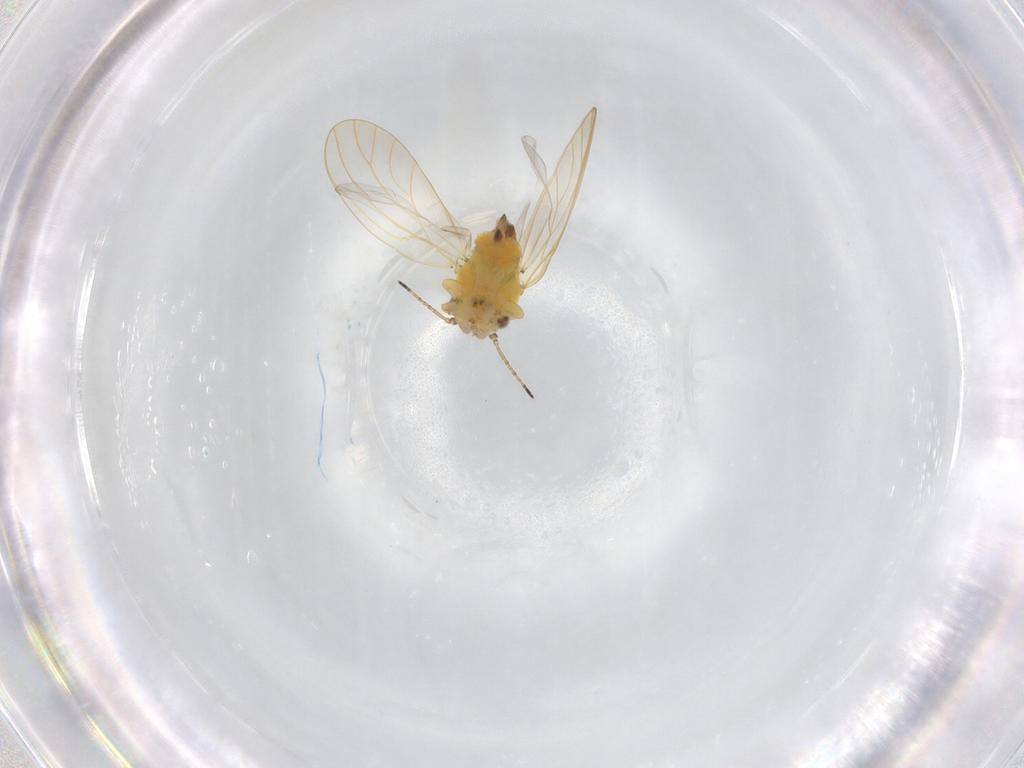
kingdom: Animalia
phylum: Arthropoda
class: Insecta
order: Hemiptera
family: Aphalaridae
